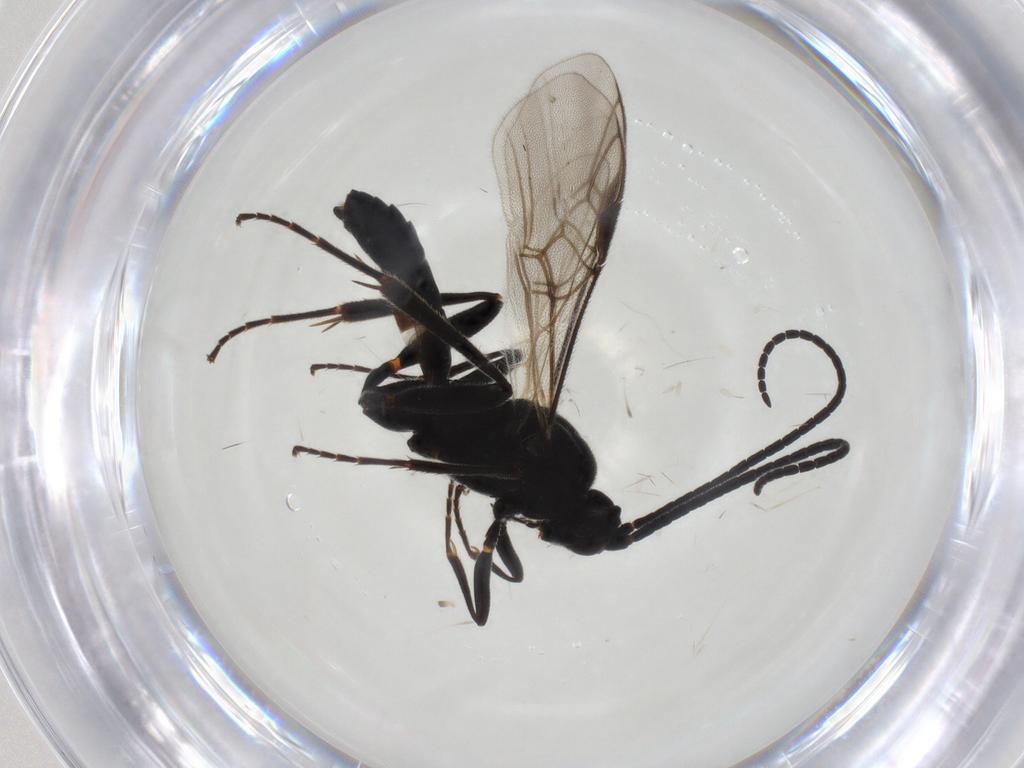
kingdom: Animalia
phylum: Arthropoda
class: Insecta
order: Hymenoptera
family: Braconidae
